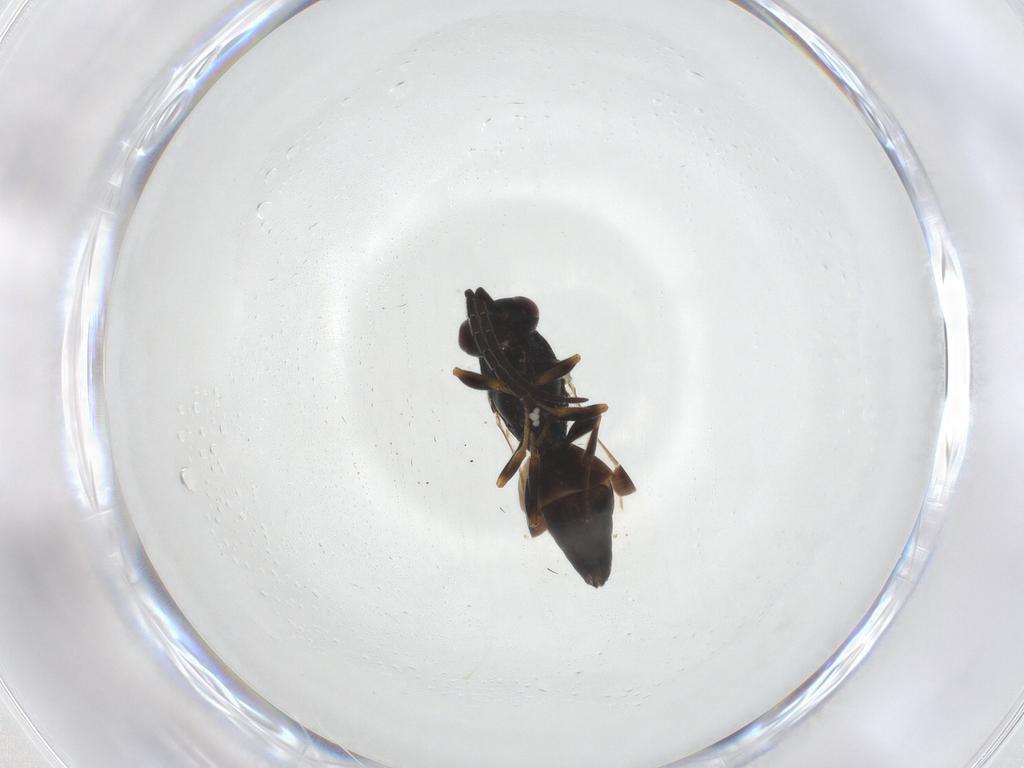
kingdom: Animalia
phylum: Arthropoda
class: Insecta
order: Hymenoptera
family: Megaspilidae
